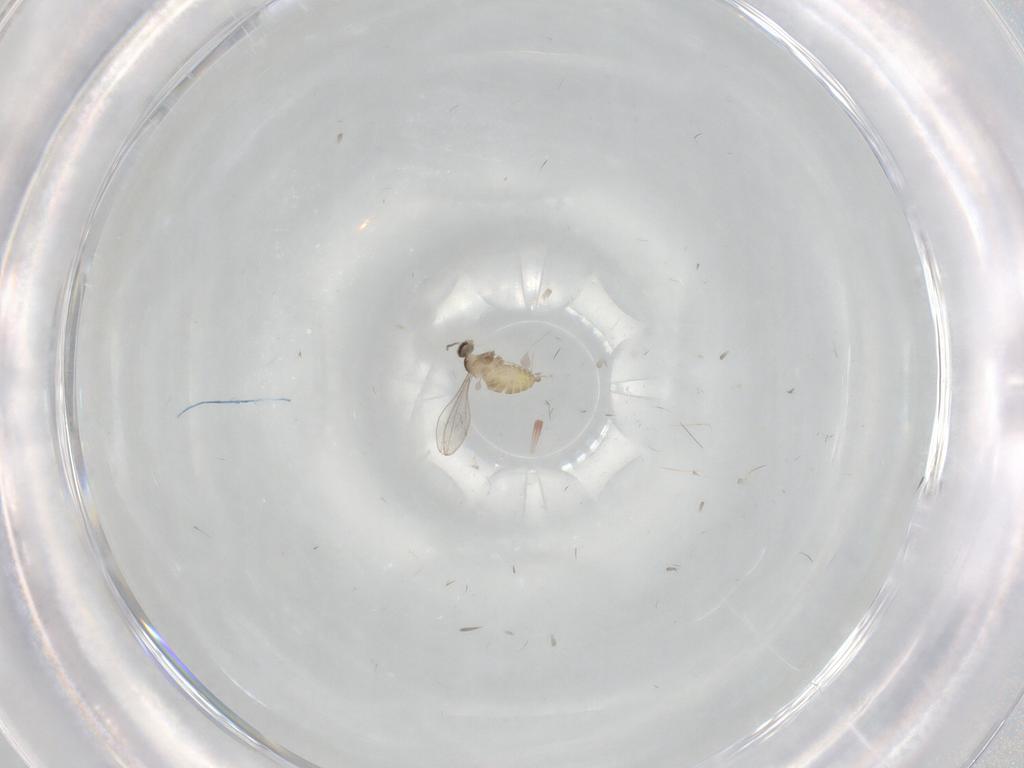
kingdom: Animalia
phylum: Arthropoda
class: Insecta
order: Diptera
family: Cecidomyiidae
